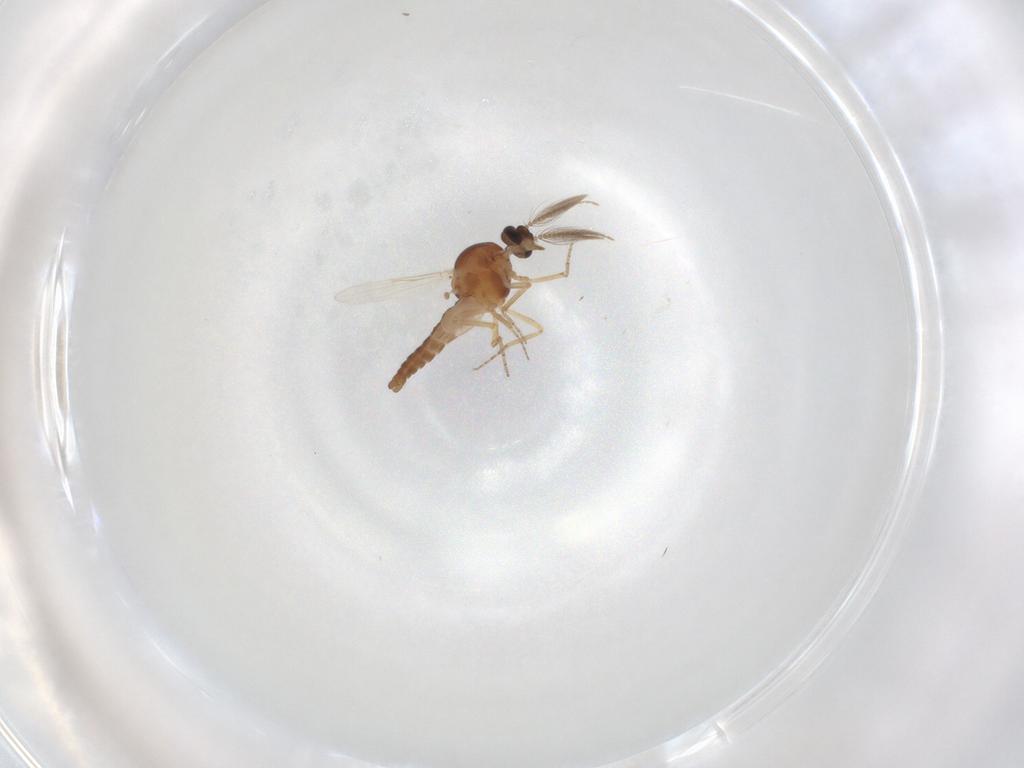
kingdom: Animalia
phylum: Arthropoda
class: Insecta
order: Diptera
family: Ceratopogonidae
